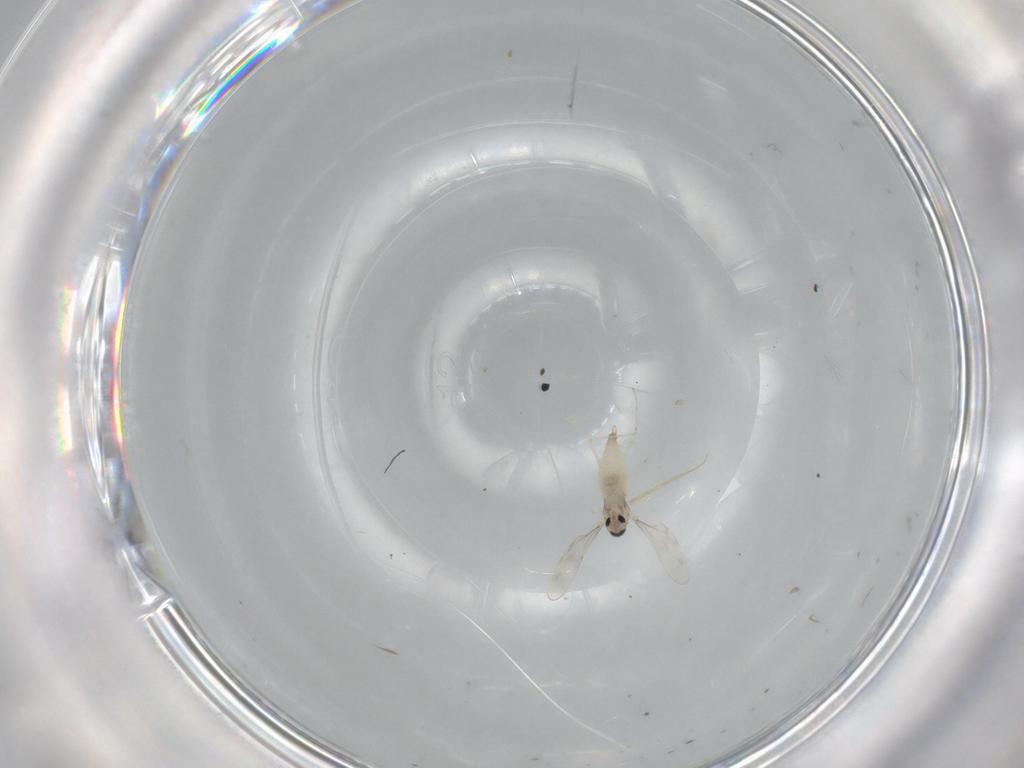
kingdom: Animalia
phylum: Arthropoda
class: Insecta
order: Diptera
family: Cecidomyiidae
